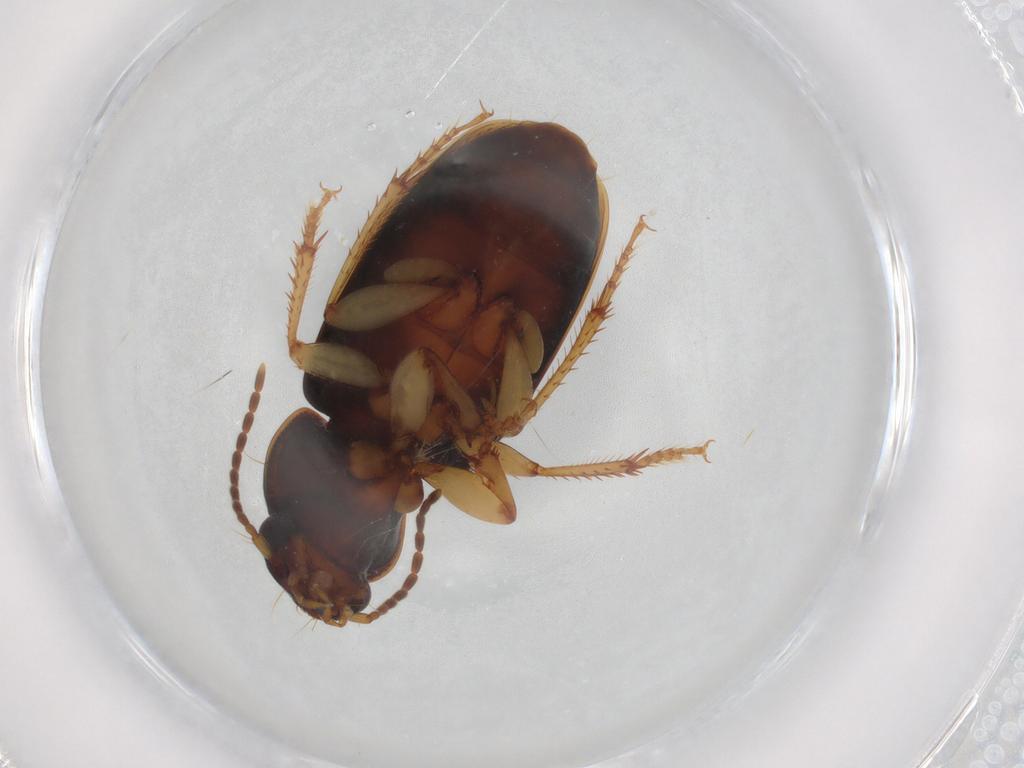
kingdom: Animalia
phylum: Arthropoda
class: Insecta
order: Coleoptera
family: Carabidae
